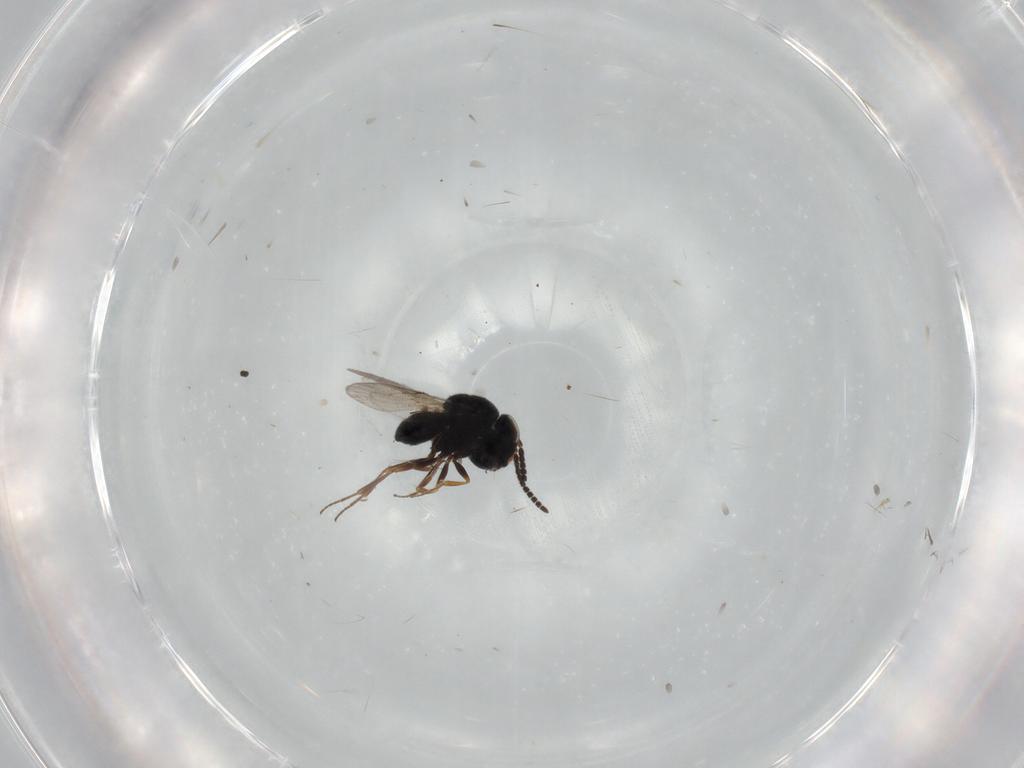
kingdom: Animalia
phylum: Arthropoda
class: Insecta
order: Hymenoptera
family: Scelionidae
